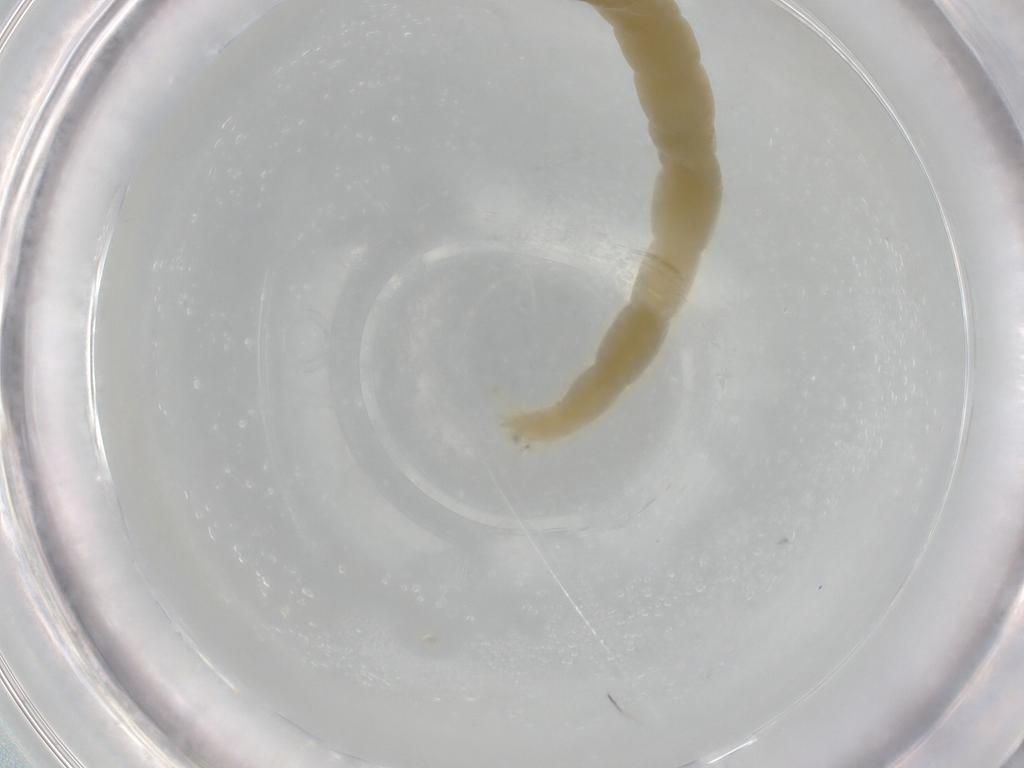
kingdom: Animalia
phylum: Arthropoda
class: Insecta
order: Diptera
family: Chironomidae
